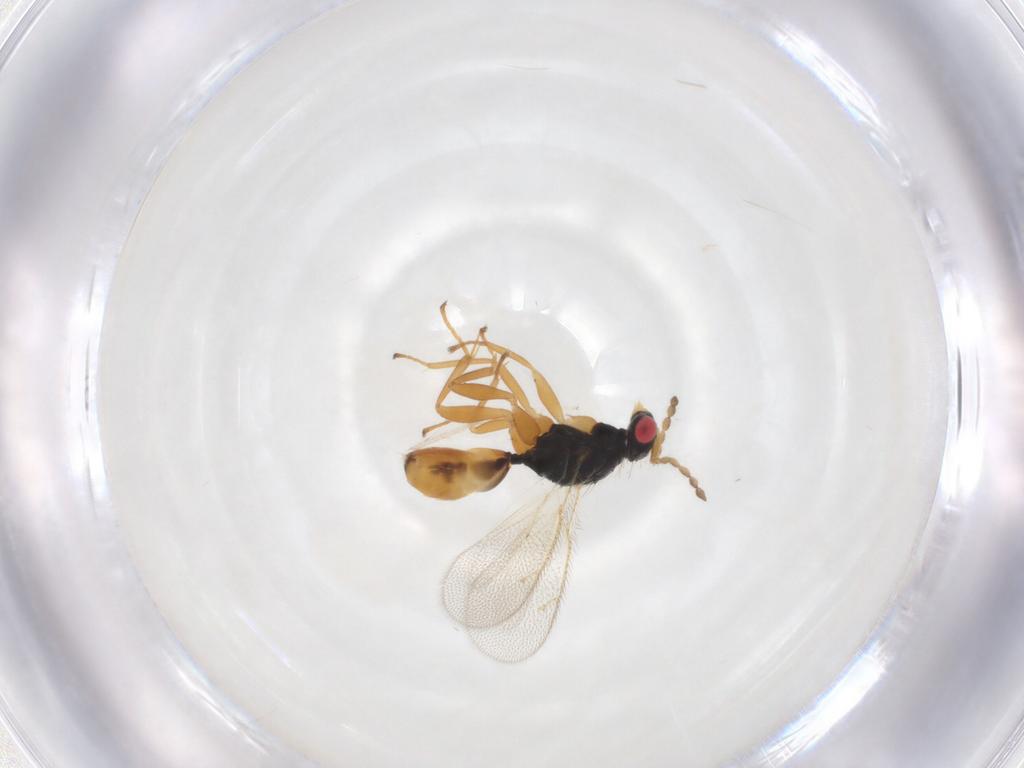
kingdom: Animalia
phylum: Arthropoda
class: Insecta
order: Hymenoptera
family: Eulophidae
